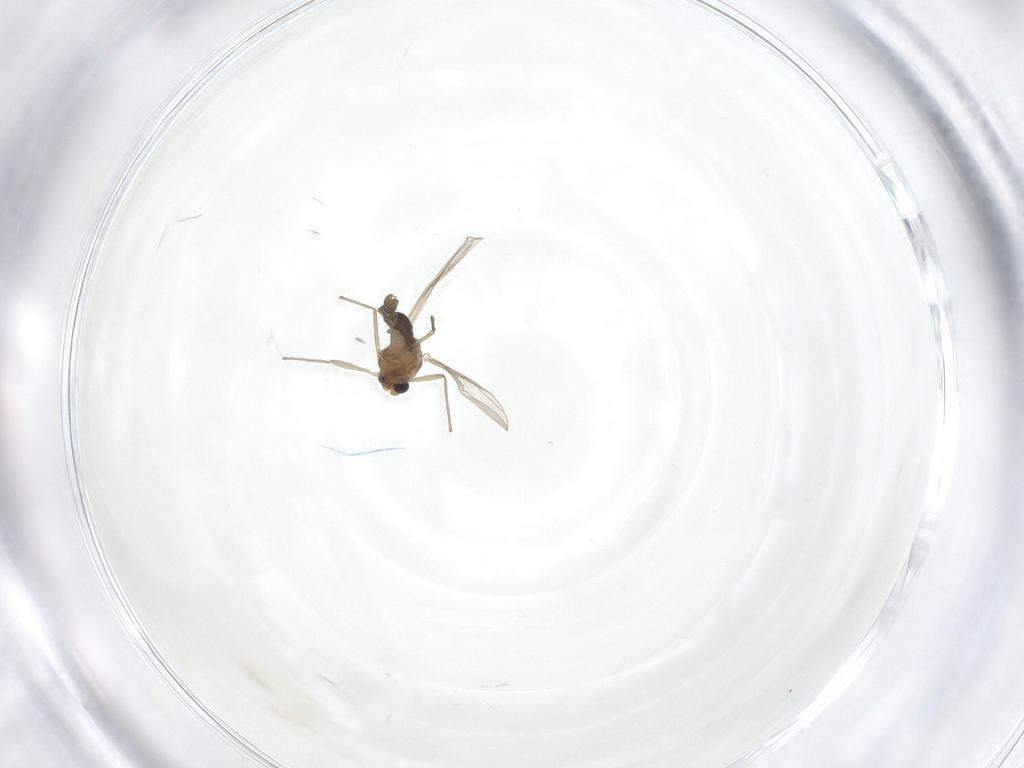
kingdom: Animalia
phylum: Arthropoda
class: Insecta
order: Diptera
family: Chironomidae
